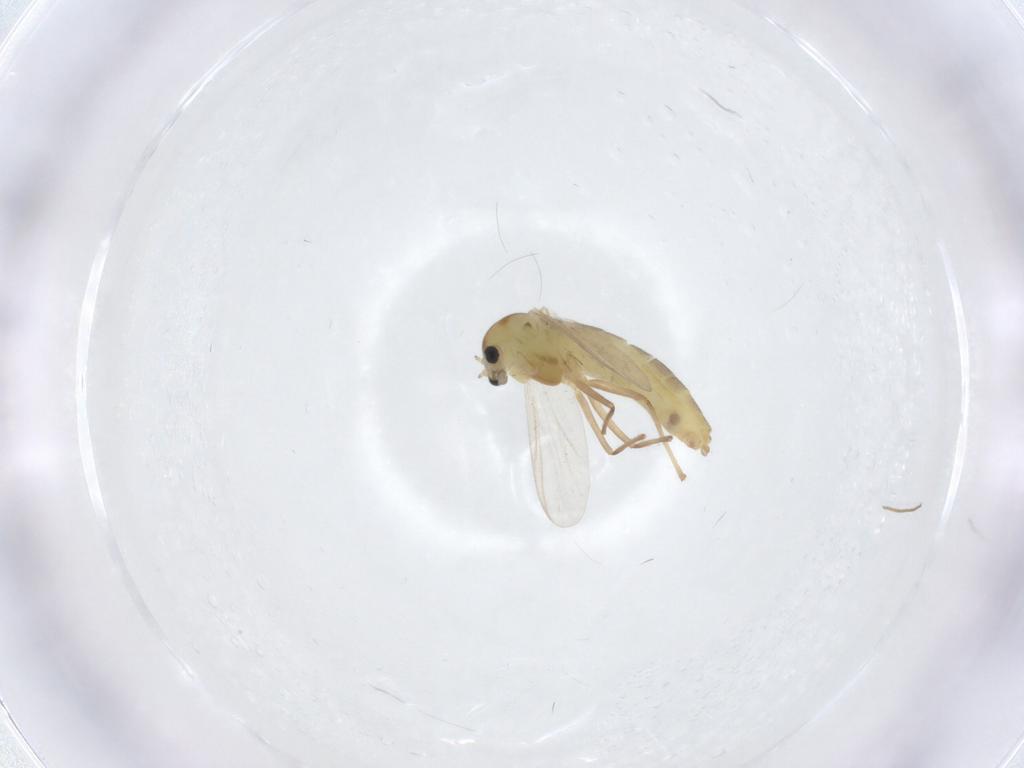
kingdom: Animalia
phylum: Arthropoda
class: Insecta
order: Diptera
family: Chironomidae
